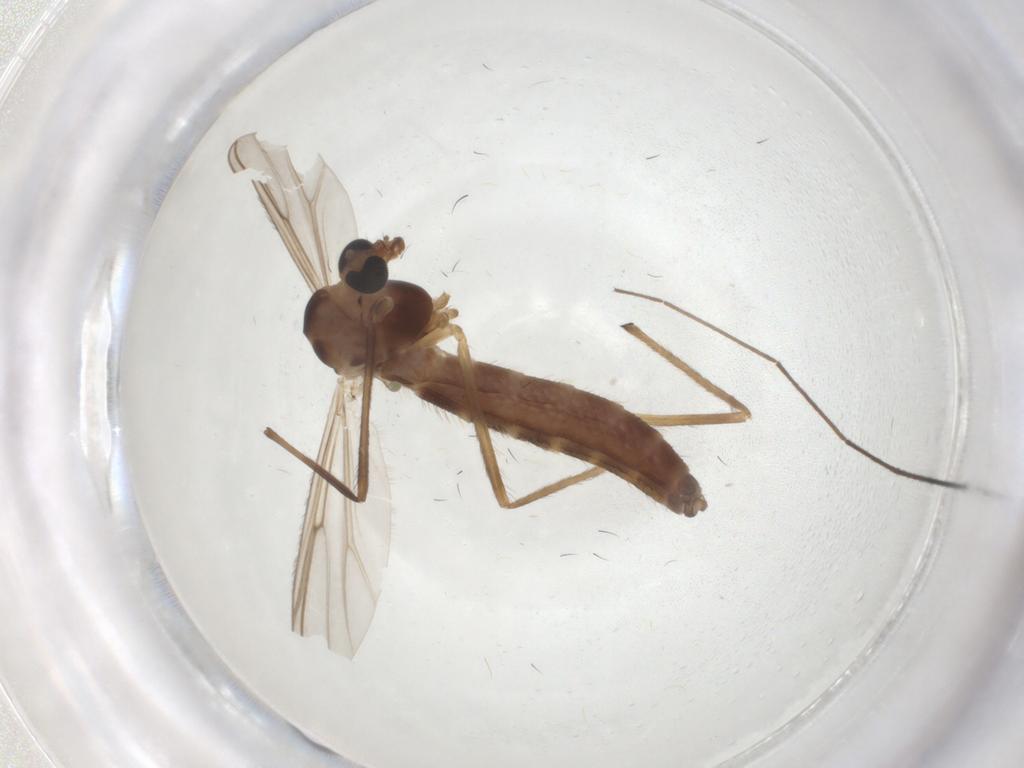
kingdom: Animalia
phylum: Arthropoda
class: Insecta
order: Diptera
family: Chironomidae
